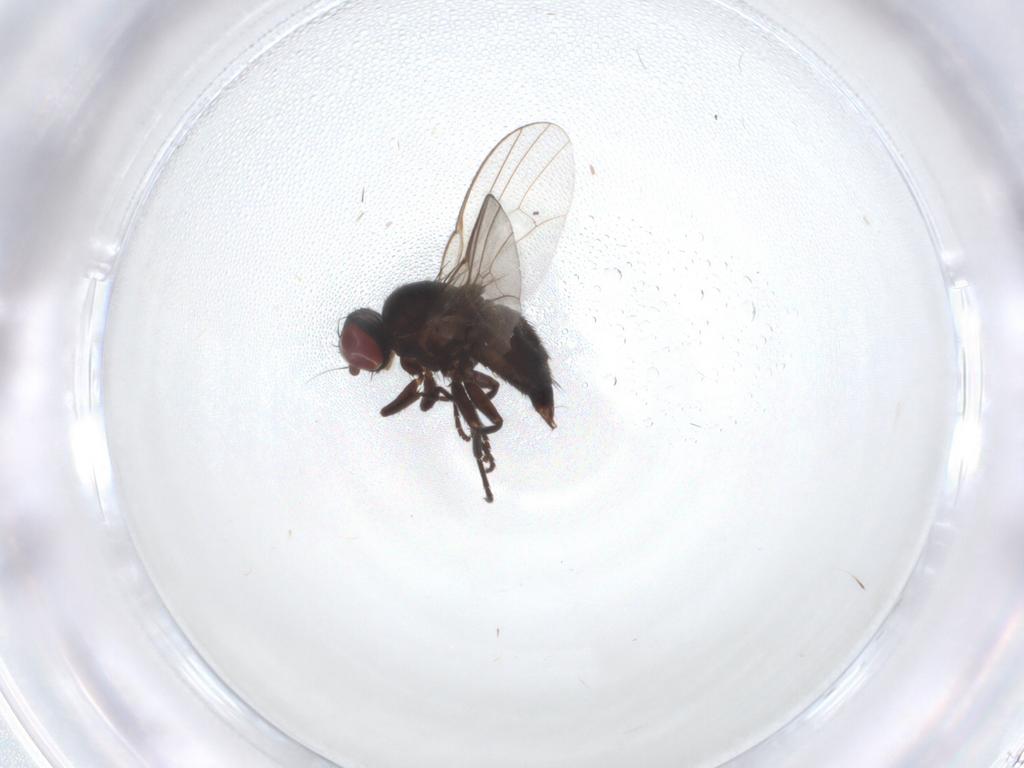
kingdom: Animalia
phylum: Arthropoda
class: Insecta
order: Diptera
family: Agromyzidae
